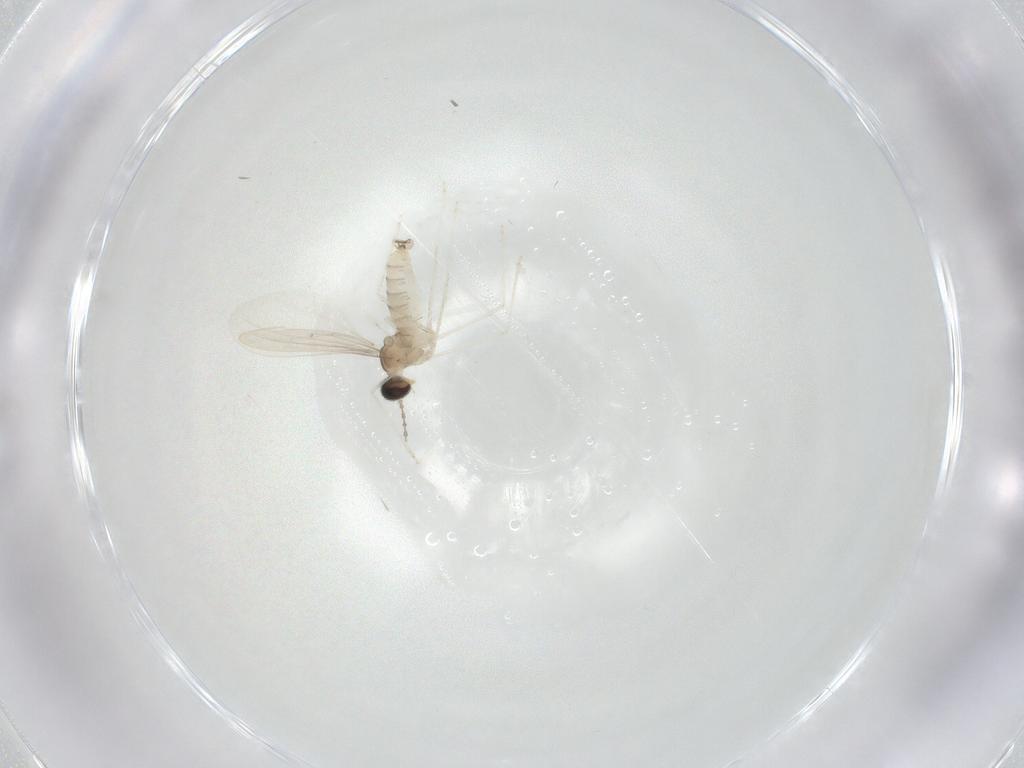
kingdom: Animalia
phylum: Arthropoda
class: Insecta
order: Diptera
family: Cecidomyiidae
